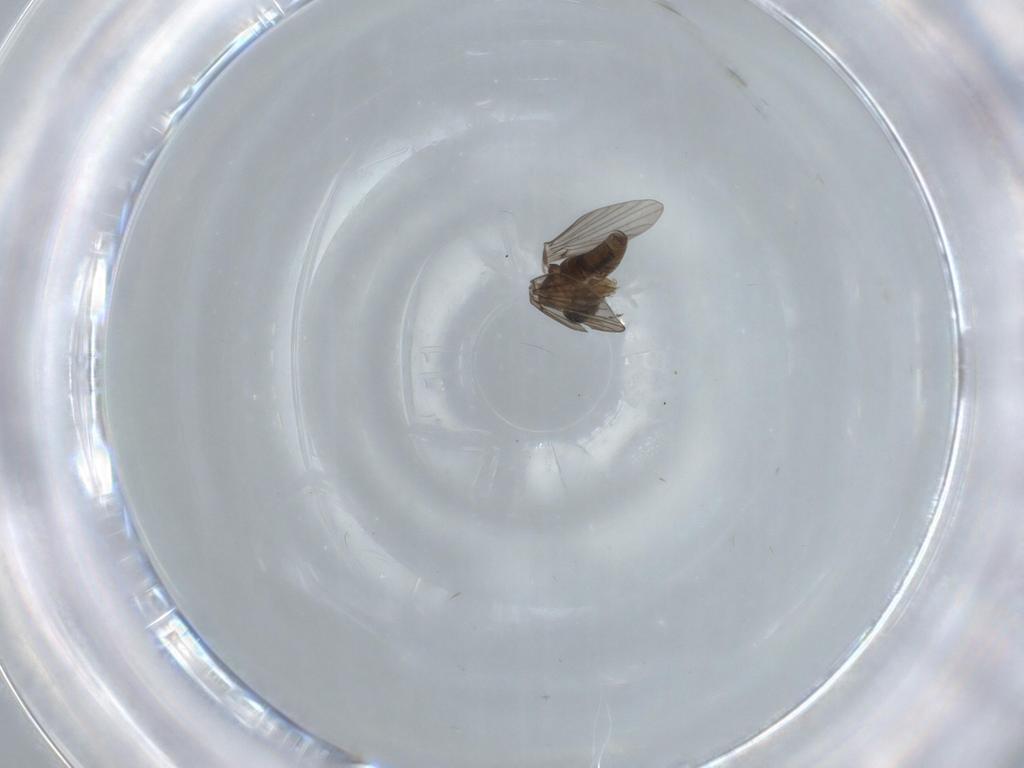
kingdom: Animalia
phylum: Arthropoda
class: Insecta
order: Diptera
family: Psychodidae
